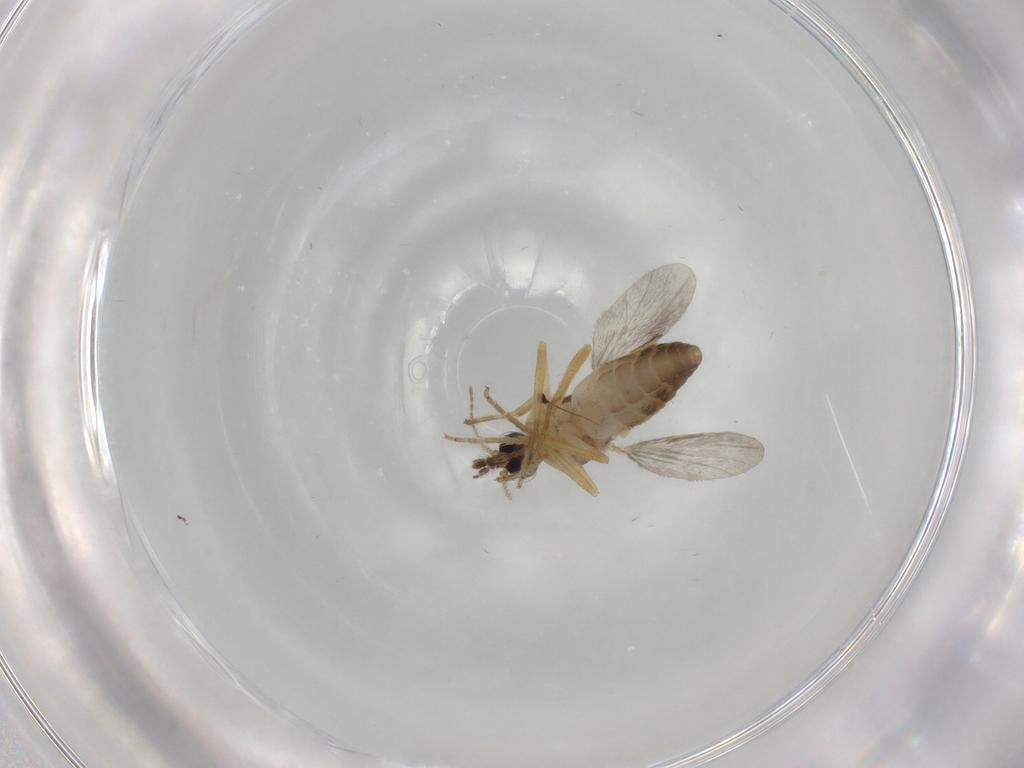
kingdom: Animalia
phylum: Arthropoda
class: Insecta
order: Diptera
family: Ceratopogonidae
